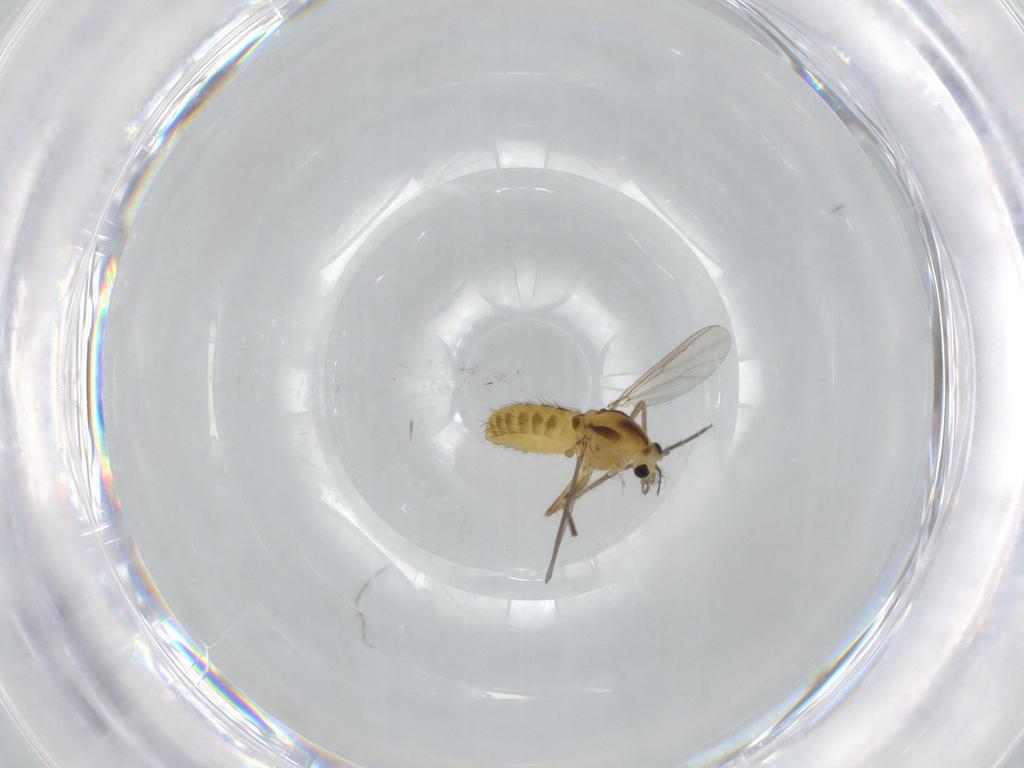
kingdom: Animalia
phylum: Arthropoda
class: Insecta
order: Diptera
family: Chironomidae
